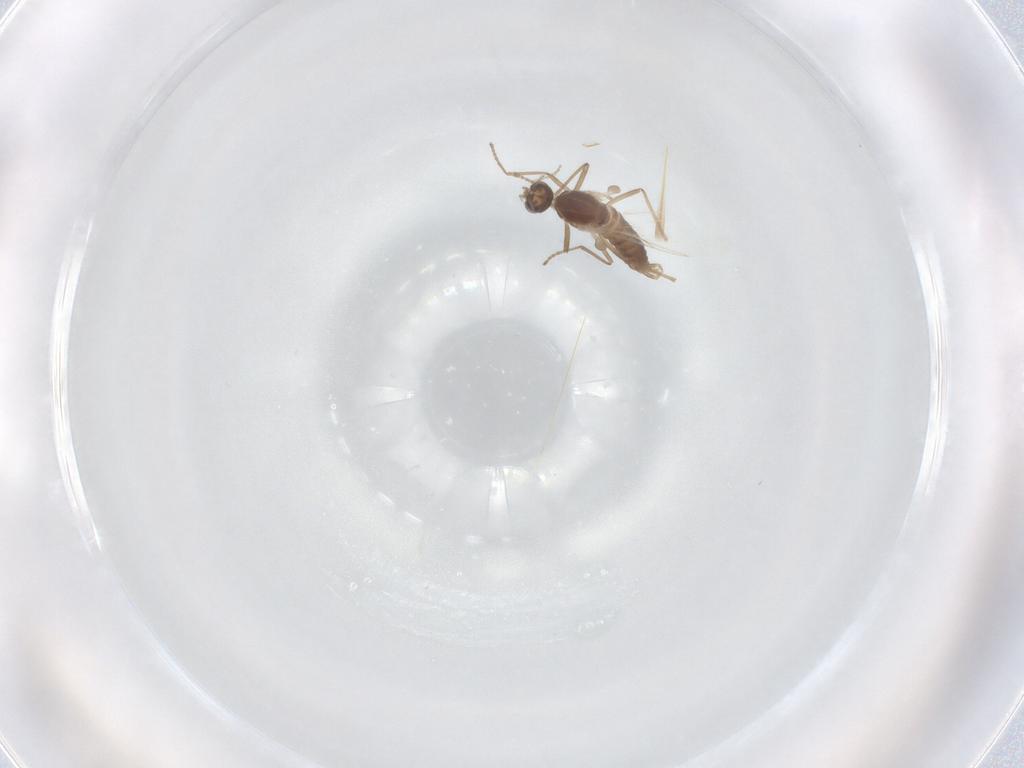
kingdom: Animalia
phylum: Arthropoda
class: Insecta
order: Diptera
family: Cecidomyiidae
